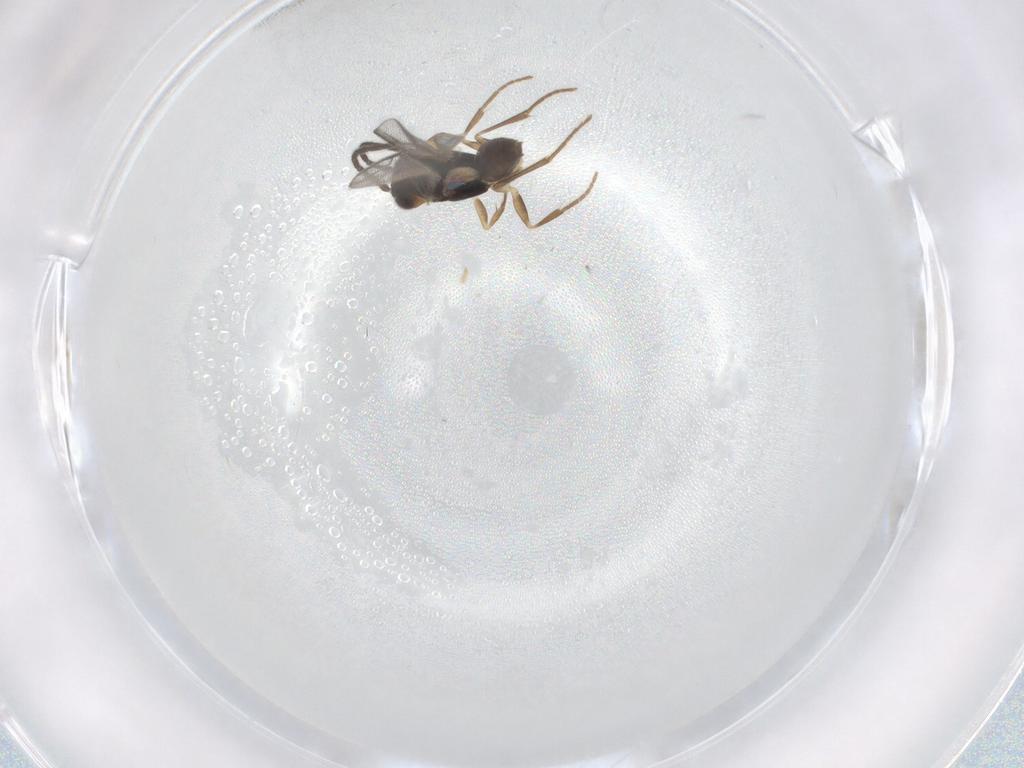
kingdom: Animalia
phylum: Arthropoda
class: Insecta
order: Hymenoptera
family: Dryinidae
